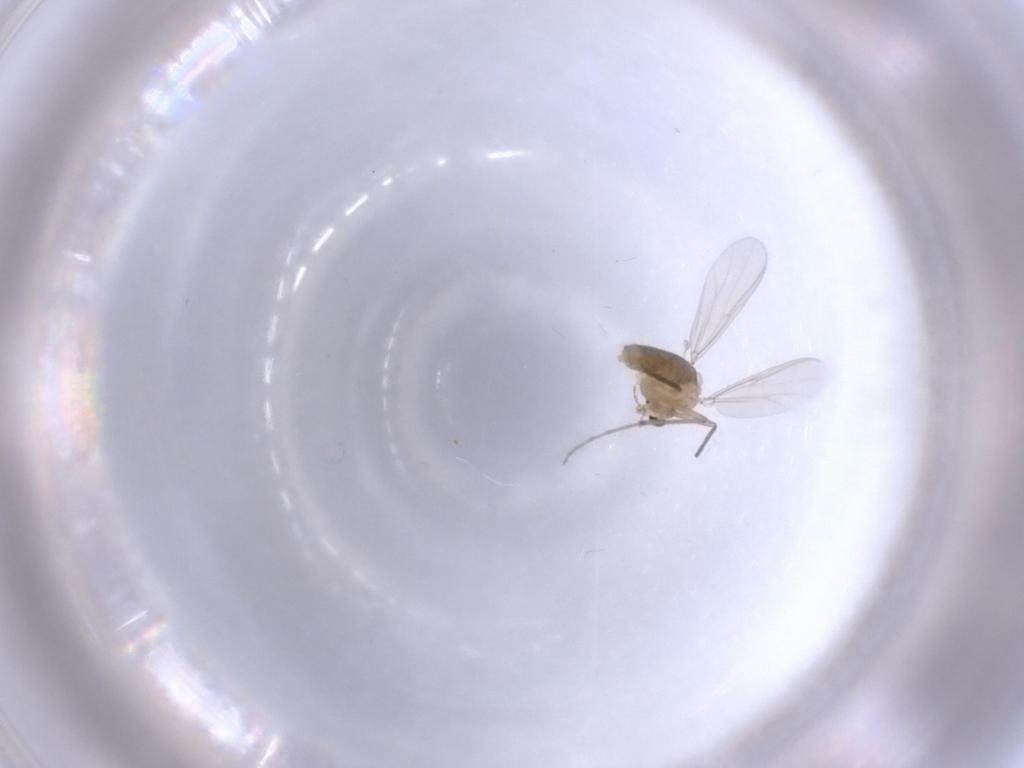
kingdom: Animalia
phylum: Arthropoda
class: Insecta
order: Diptera
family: Chironomidae
